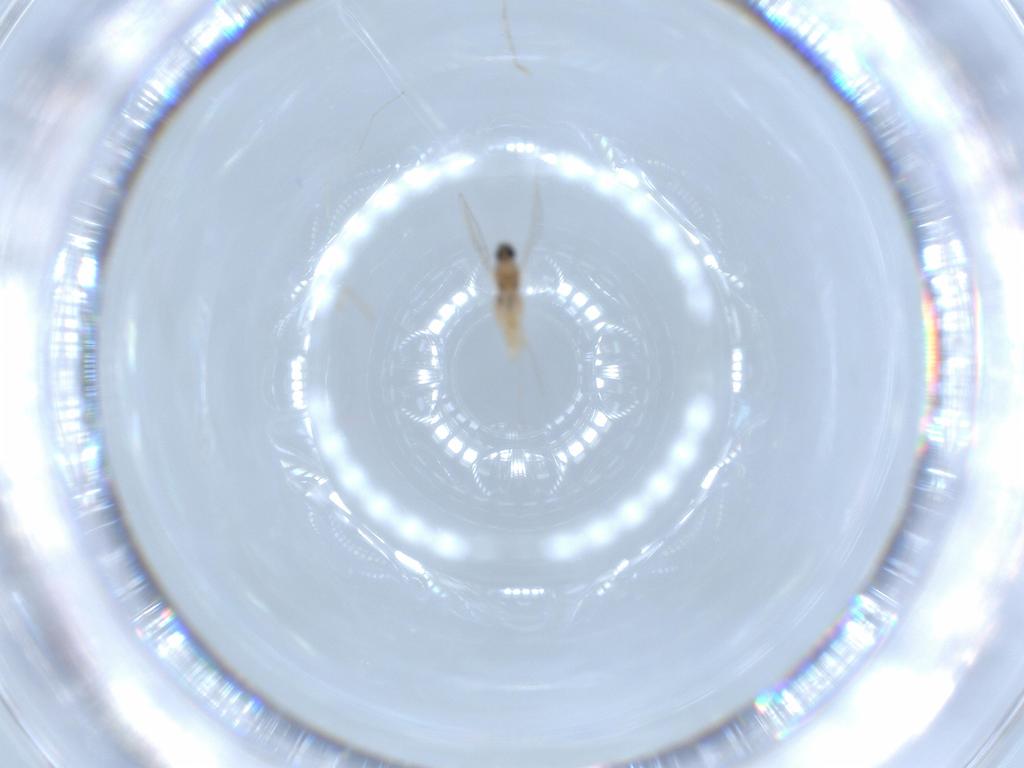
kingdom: Animalia
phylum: Arthropoda
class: Insecta
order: Diptera
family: Cecidomyiidae
